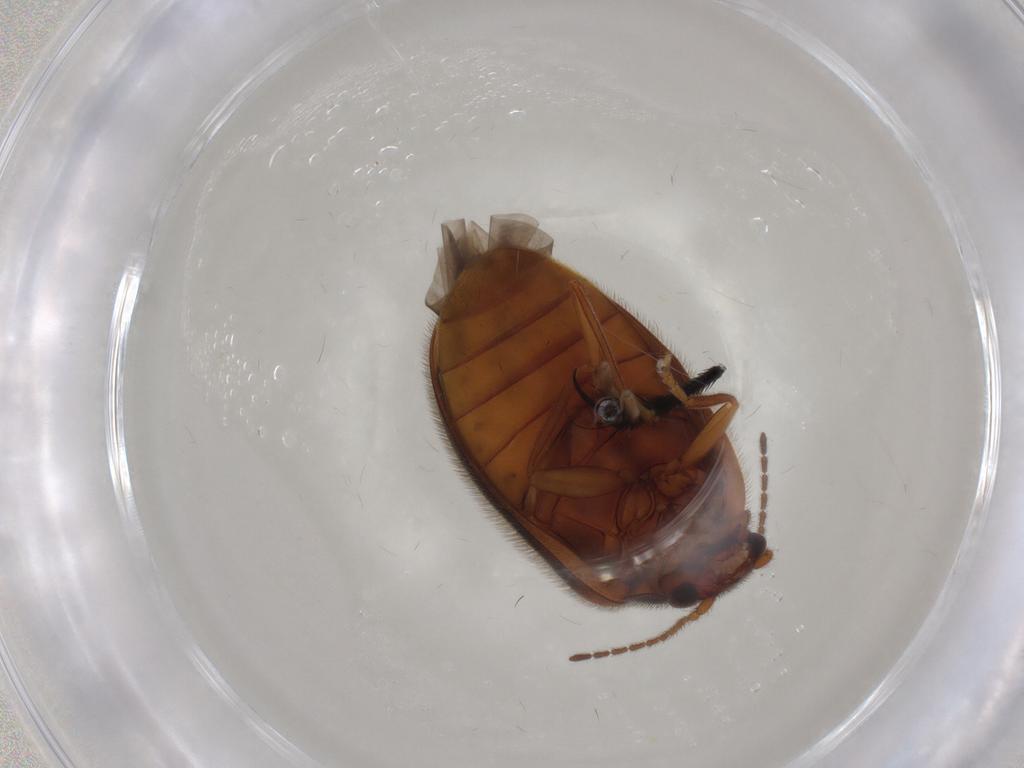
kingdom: Animalia
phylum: Arthropoda
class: Insecta
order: Coleoptera
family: Scirtidae
